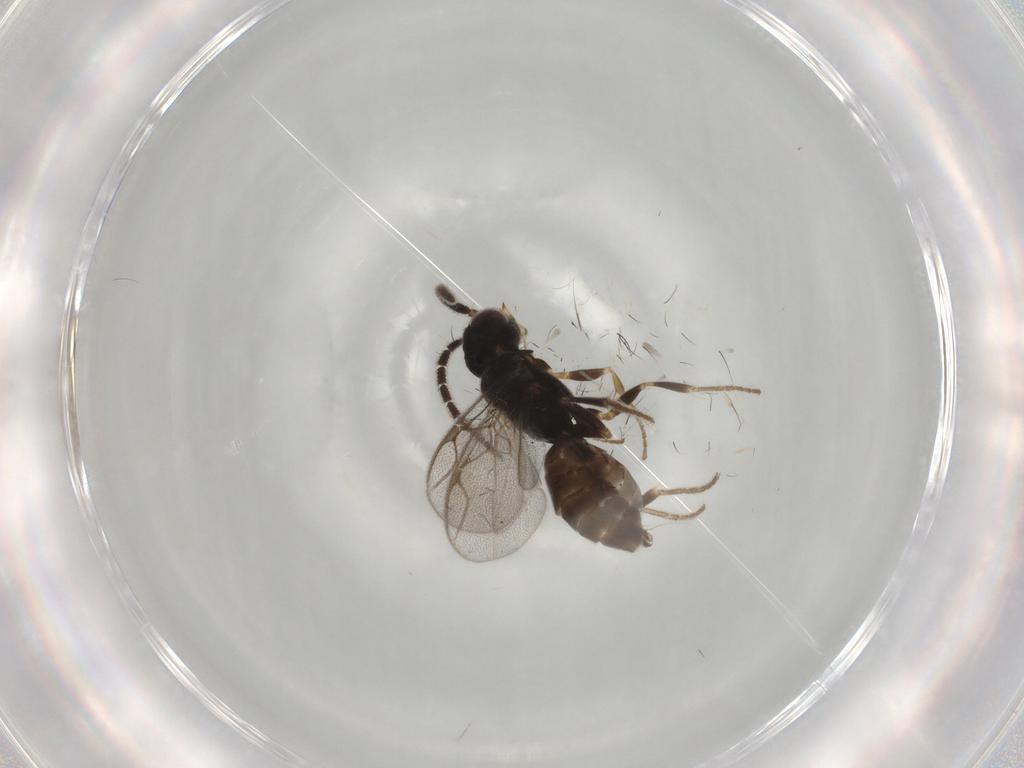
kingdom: Animalia
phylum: Arthropoda
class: Insecta
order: Hymenoptera
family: Dryinidae
